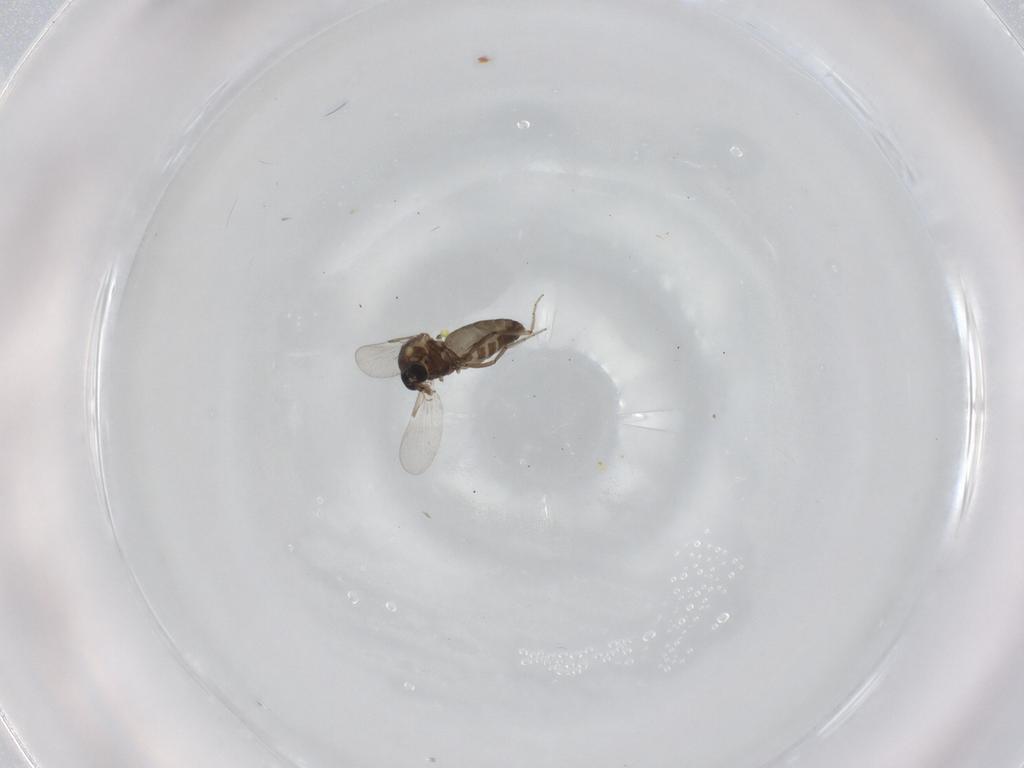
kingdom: Animalia
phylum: Arthropoda
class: Insecta
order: Diptera
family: Ceratopogonidae
